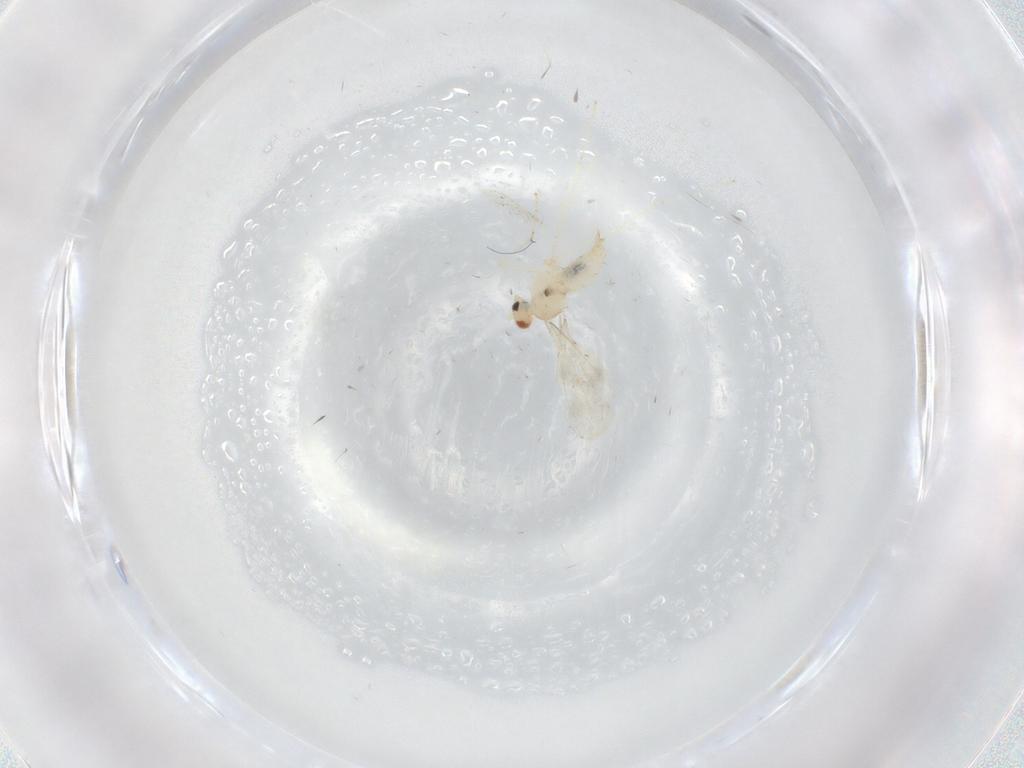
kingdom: Animalia
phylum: Arthropoda
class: Insecta
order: Diptera
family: Cecidomyiidae
